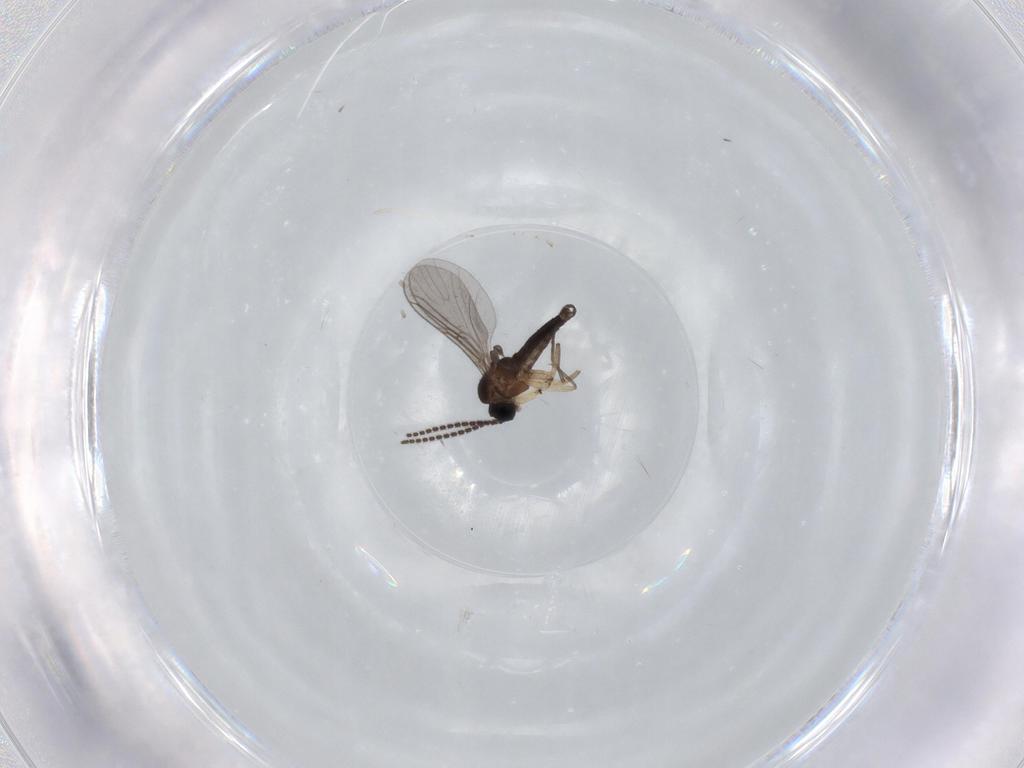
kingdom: Animalia
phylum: Arthropoda
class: Insecta
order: Diptera
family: Sciaridae
